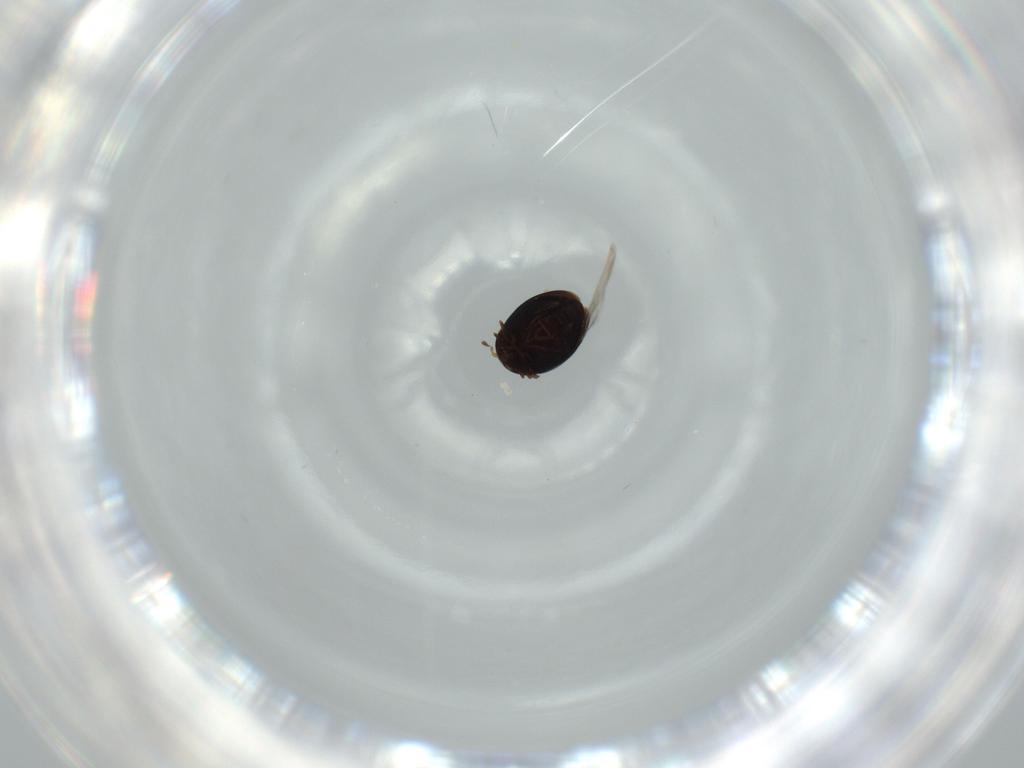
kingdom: Animalia
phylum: Arthropoda
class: Insecta
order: Coleoptera
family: Corylophidae
